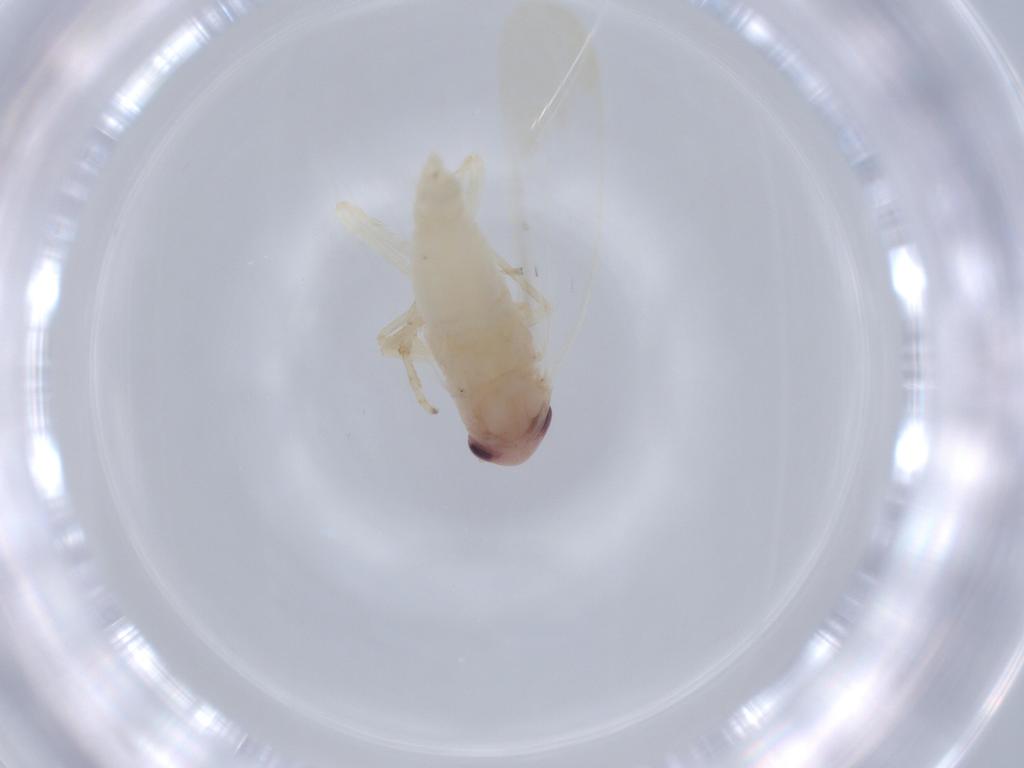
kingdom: Animalia
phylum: Arthropoda
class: Insecta
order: Hemiptera
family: Cicadellidae
